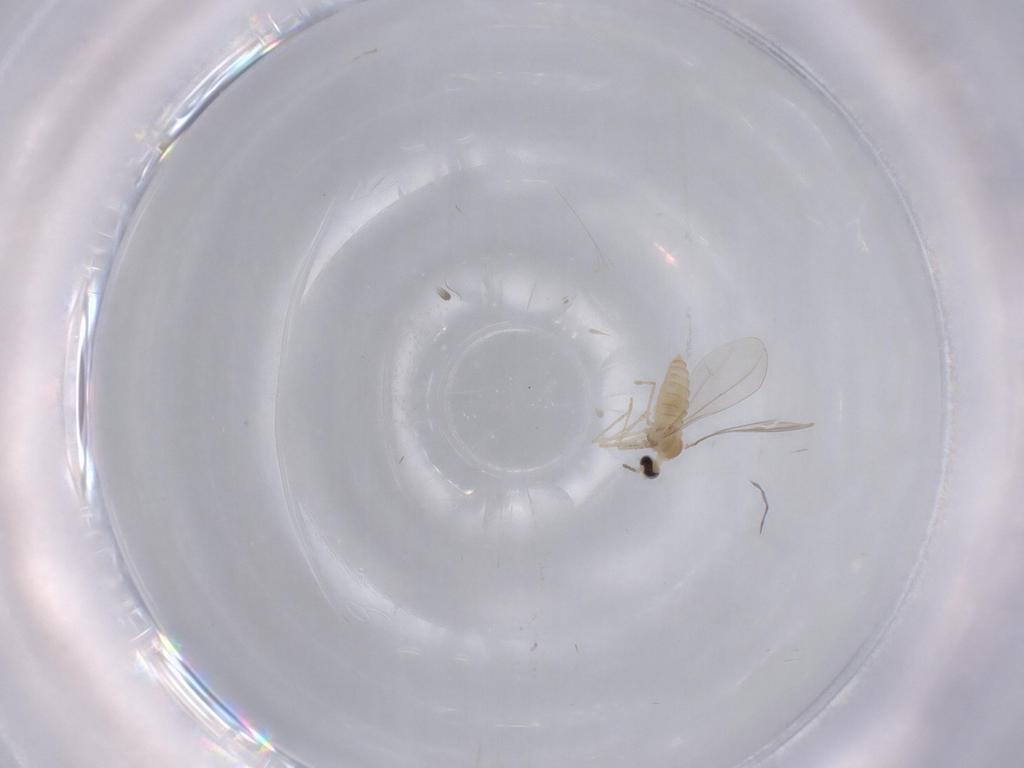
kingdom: Animalia
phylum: Arthropoda
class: Insecta
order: Diptera
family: Cecidomyiidae
